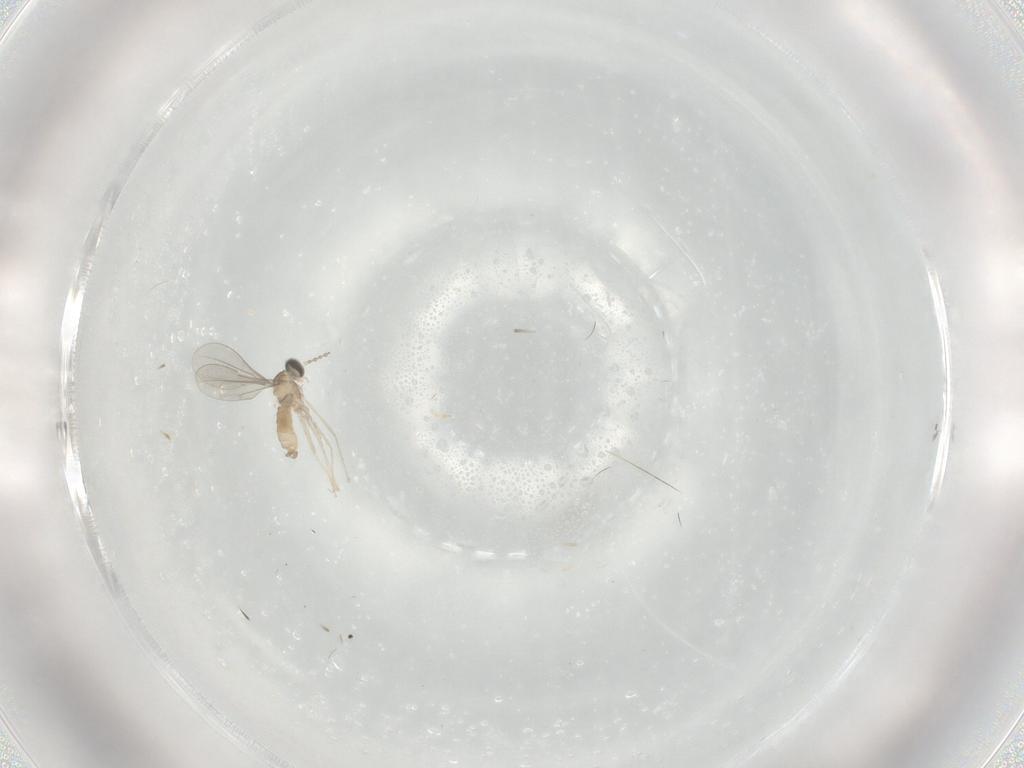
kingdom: Animalia
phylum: Arthropoda
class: Insecta
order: Diptera
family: Cecidomyiidae
